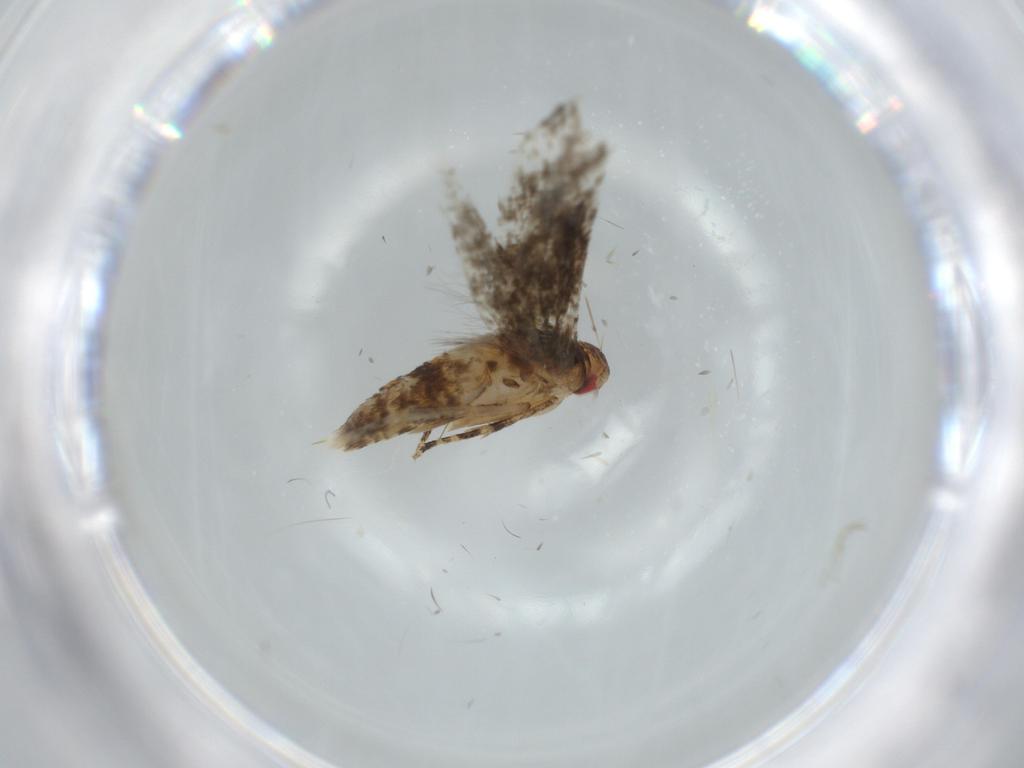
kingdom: Animalia
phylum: Arthropoda
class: Insecta
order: Lepidoptera
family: Momphidae
